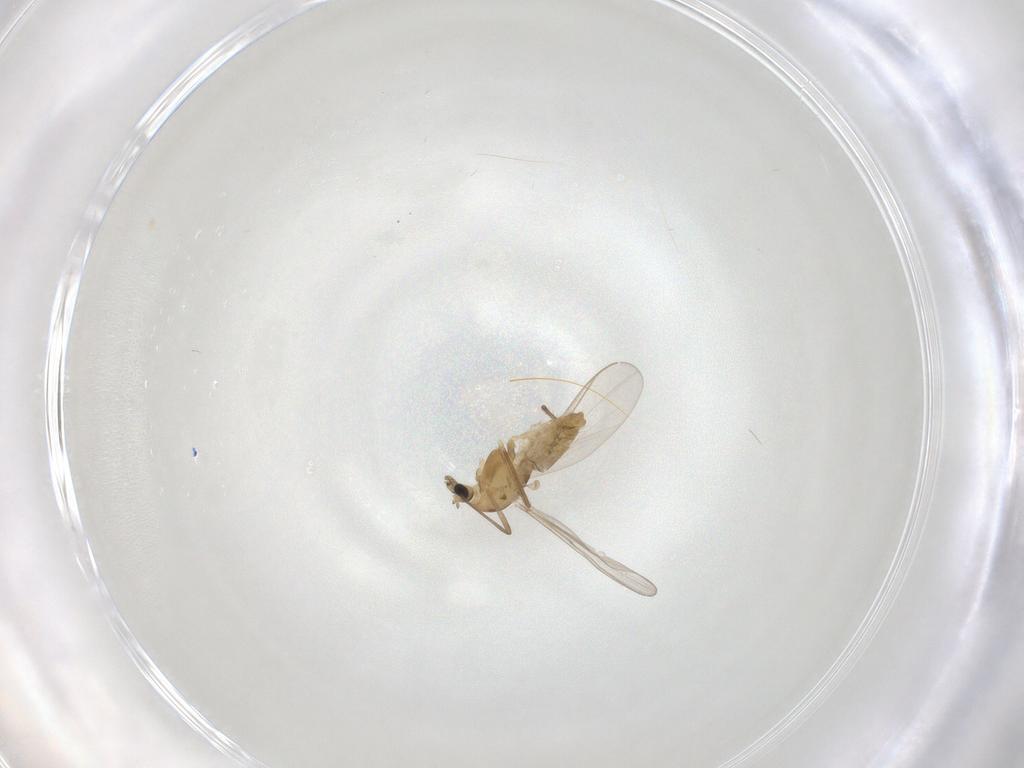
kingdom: Animalia
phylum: Arthropoda
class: Insecta
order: Diptera
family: Chironomidae
